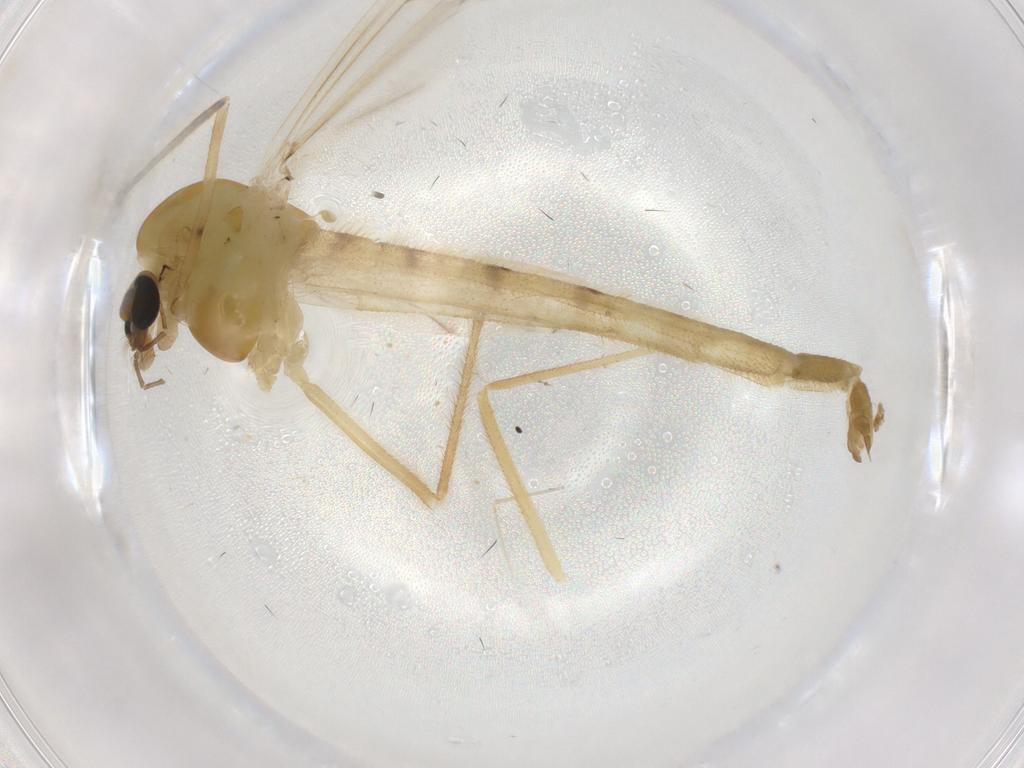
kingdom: Animalia
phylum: Arthropoda
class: Insecta
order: Diptera
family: Chironomidae
